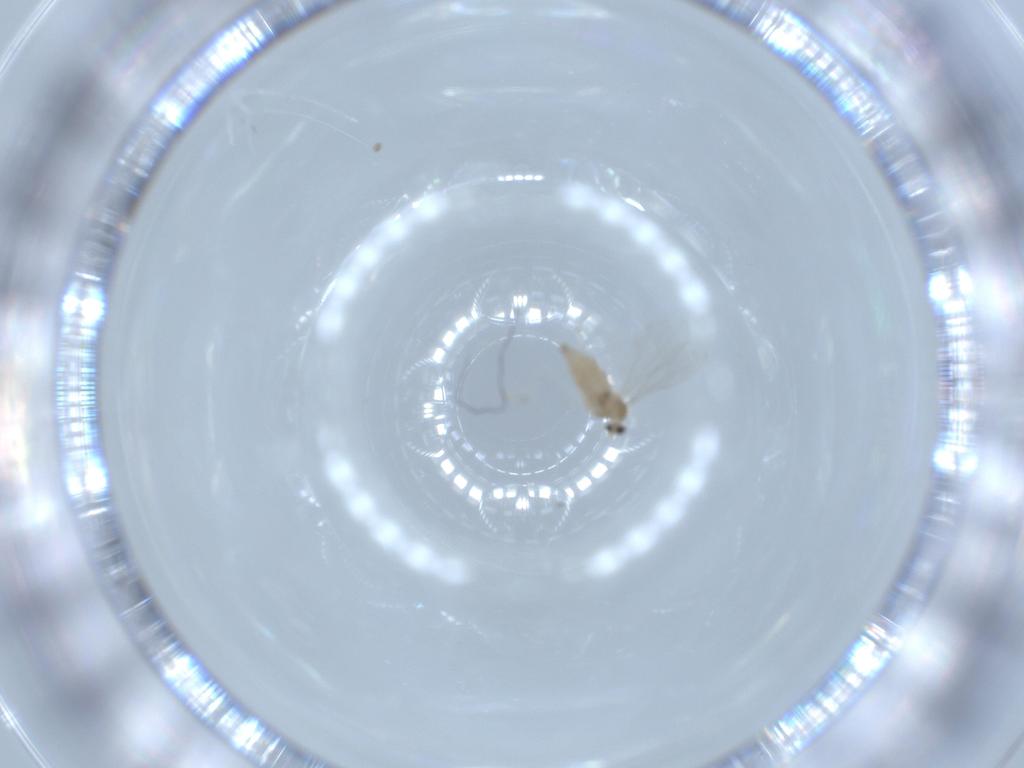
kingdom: Animalia
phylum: Arthropoda
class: Insecta
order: Diptera
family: Cecidomyiidae
